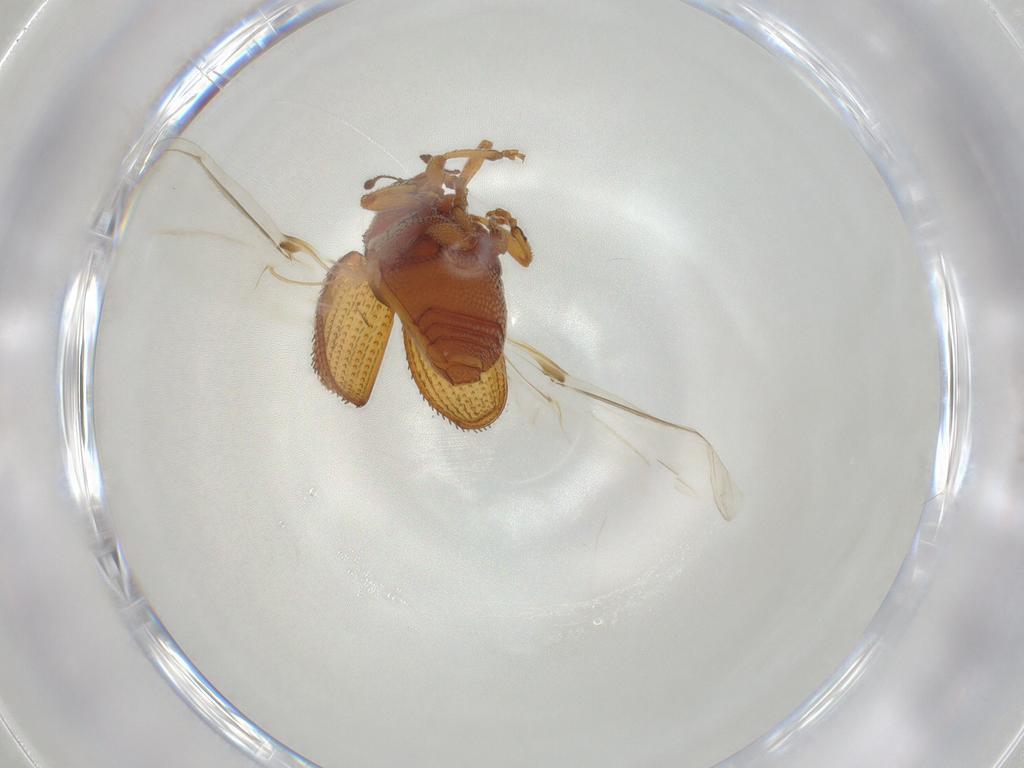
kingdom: Animalia
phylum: Arthropoda
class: Insecta
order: Coleoptera
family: Curculionidae
